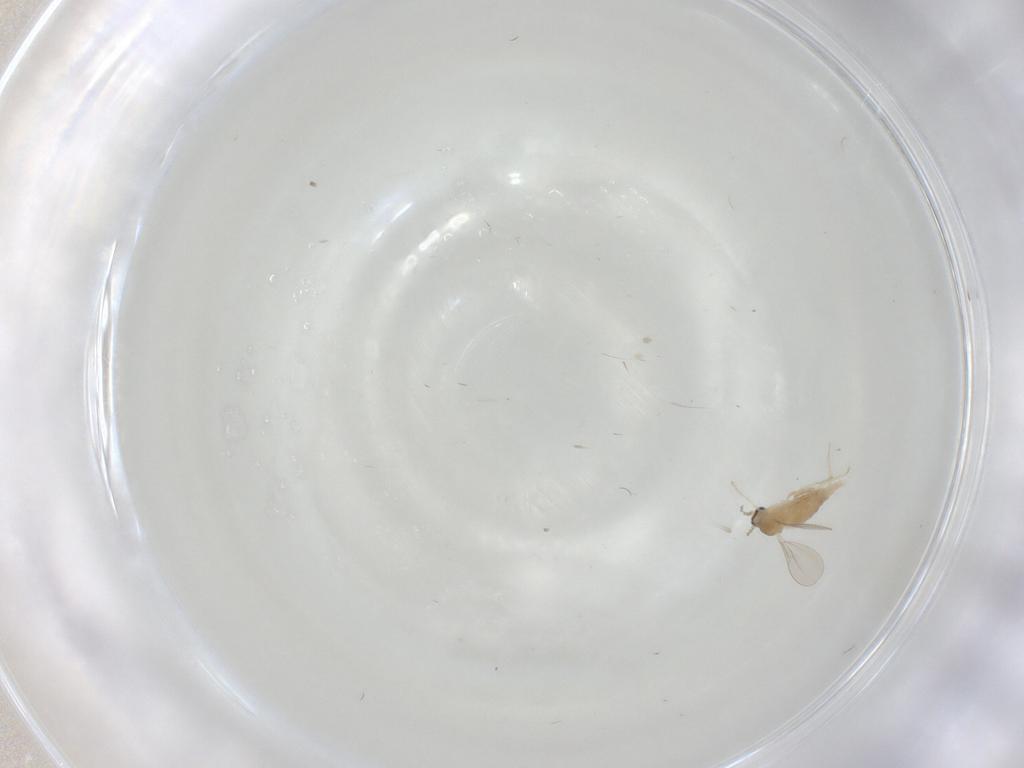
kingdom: Animalia
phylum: Arthropoda
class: Insecta
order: Diptera
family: Cecidomyiidae
